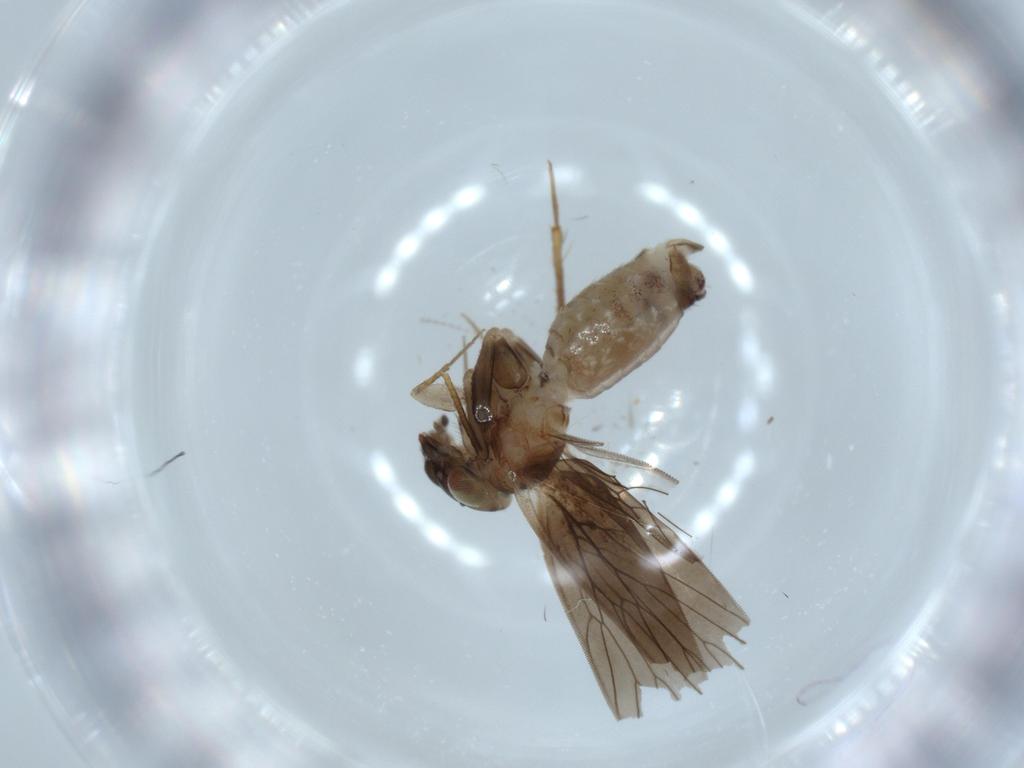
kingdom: Animalia
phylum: Arthropoda
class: Insecta
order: Psocodea
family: Lepidopsocidae
